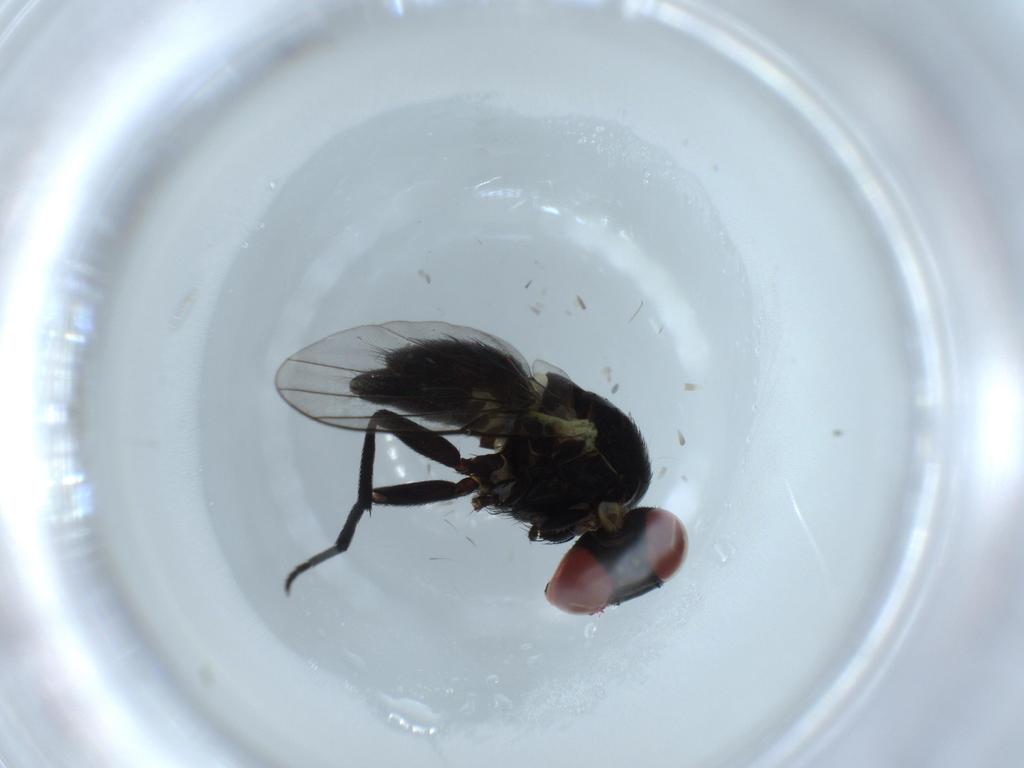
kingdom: Animalia
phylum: Arthropoda
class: Insecta
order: Diptera
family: Agromyzidae
